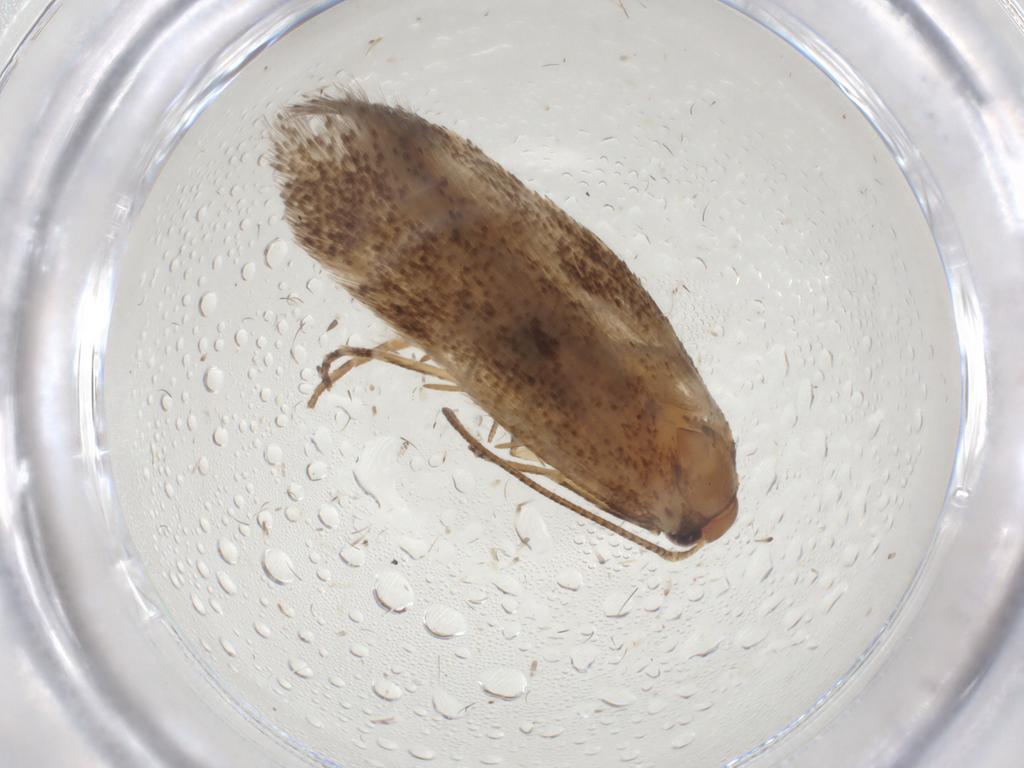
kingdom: Animalia
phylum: Arthropoda
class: Insecta
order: Lepidoptera
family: Gelechiidae
